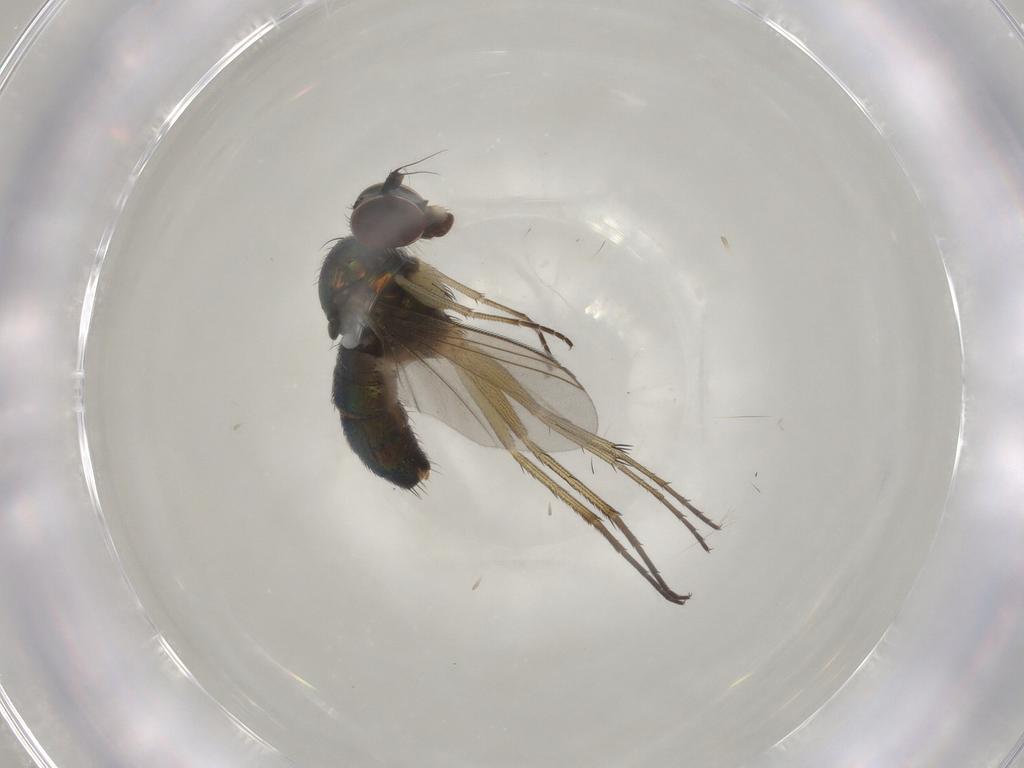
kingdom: Animalia
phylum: Arthropoda
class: Insecta
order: Diptera
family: Dolichopodidae
